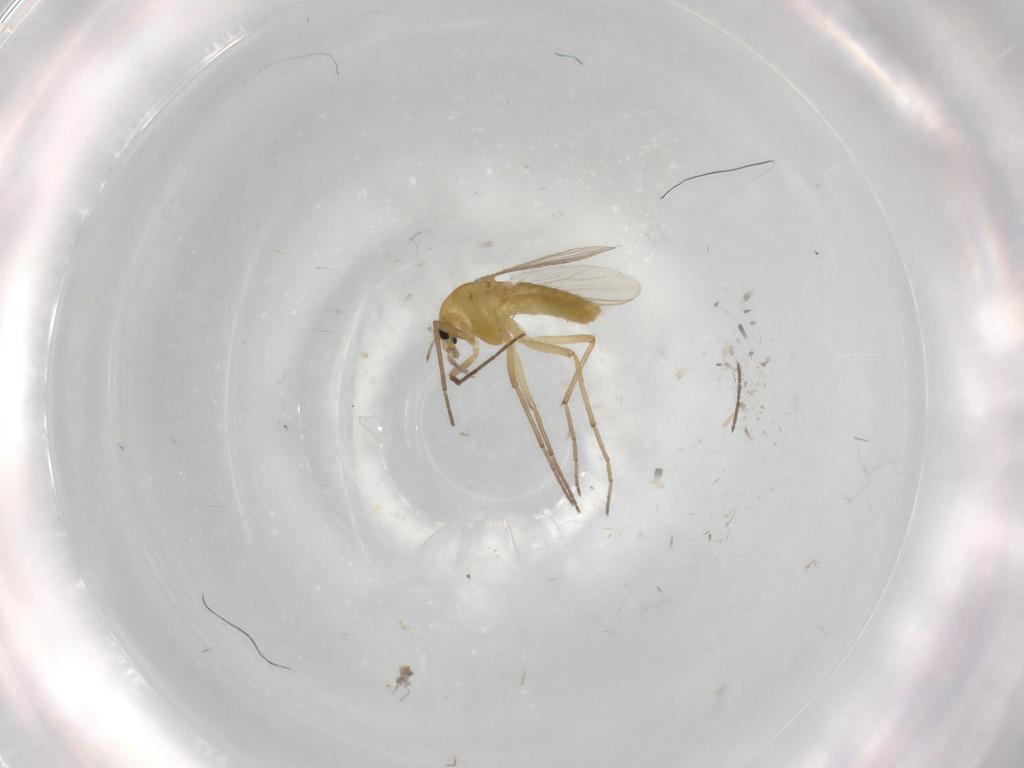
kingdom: Animalia
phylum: Arthropoda
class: Insecta
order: Diptera
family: Chironomidae
